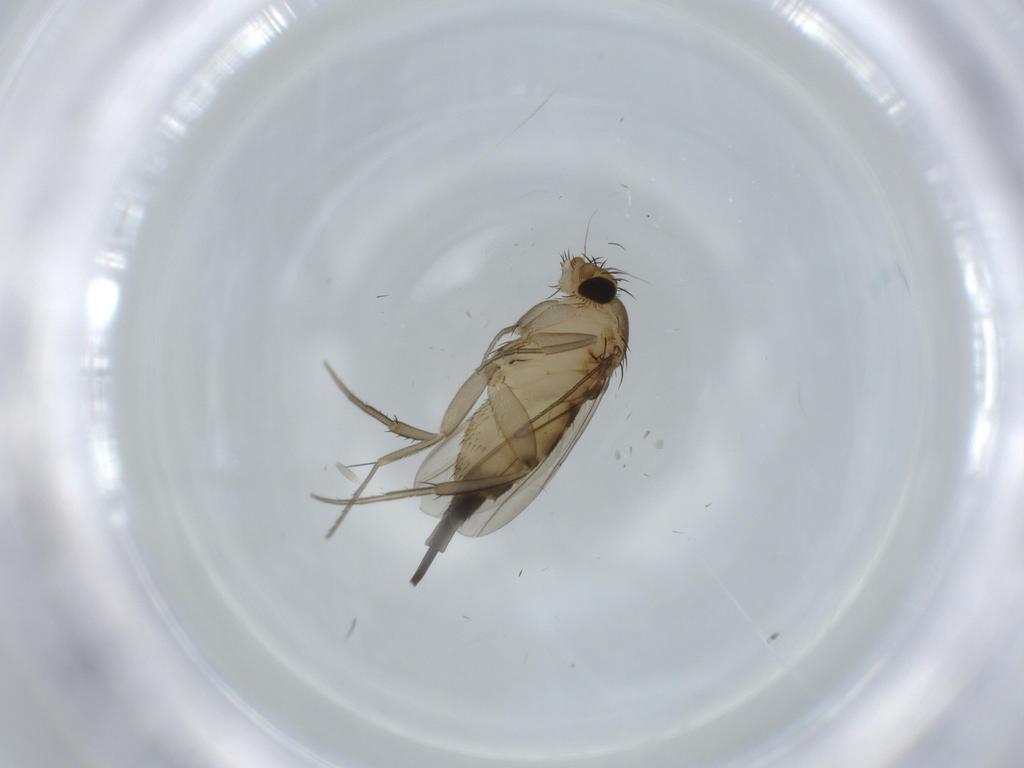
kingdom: Animalia
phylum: Arthropoda
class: Insecta
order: Diptera
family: Phoridae
